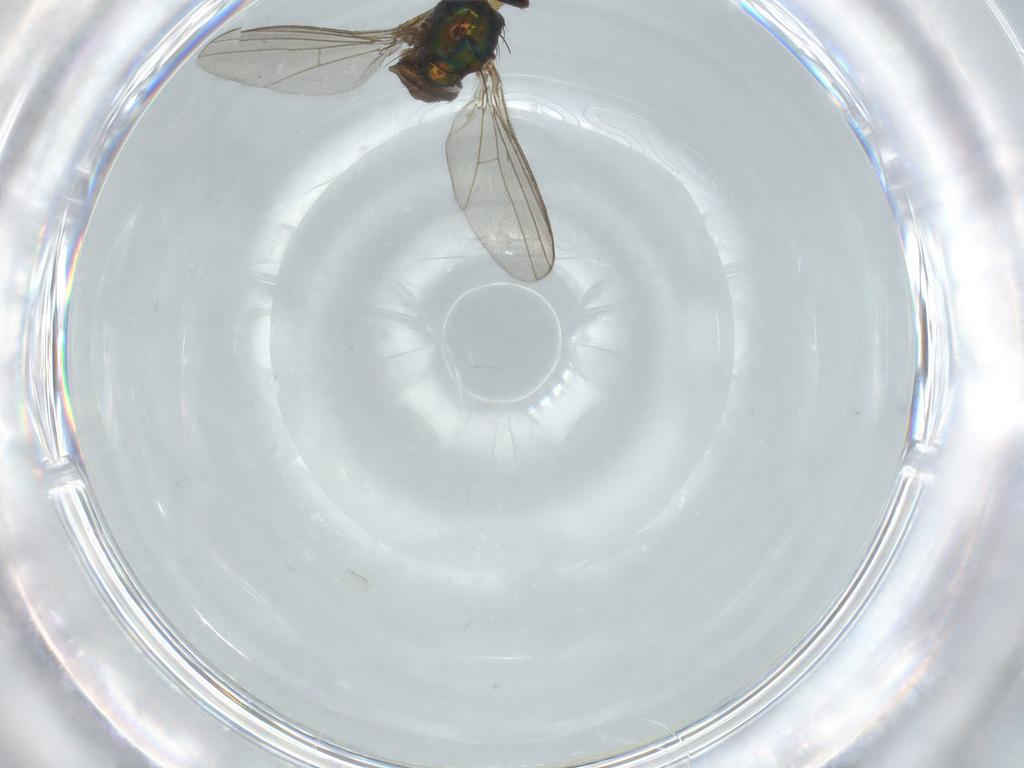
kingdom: Animalia
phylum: Arthropoda
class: Insecta
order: Diptera
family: Dolichopodidae
